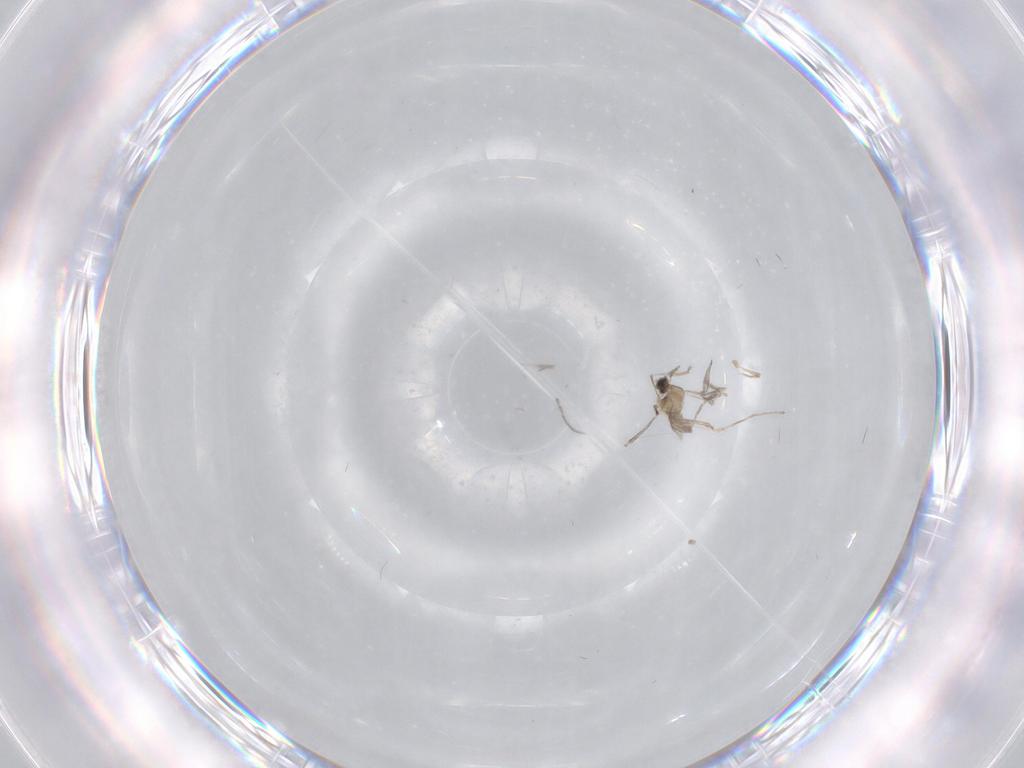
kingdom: Animalia
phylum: Arthropoda
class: Insecta
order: Diptera
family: Cecidomyiidae
